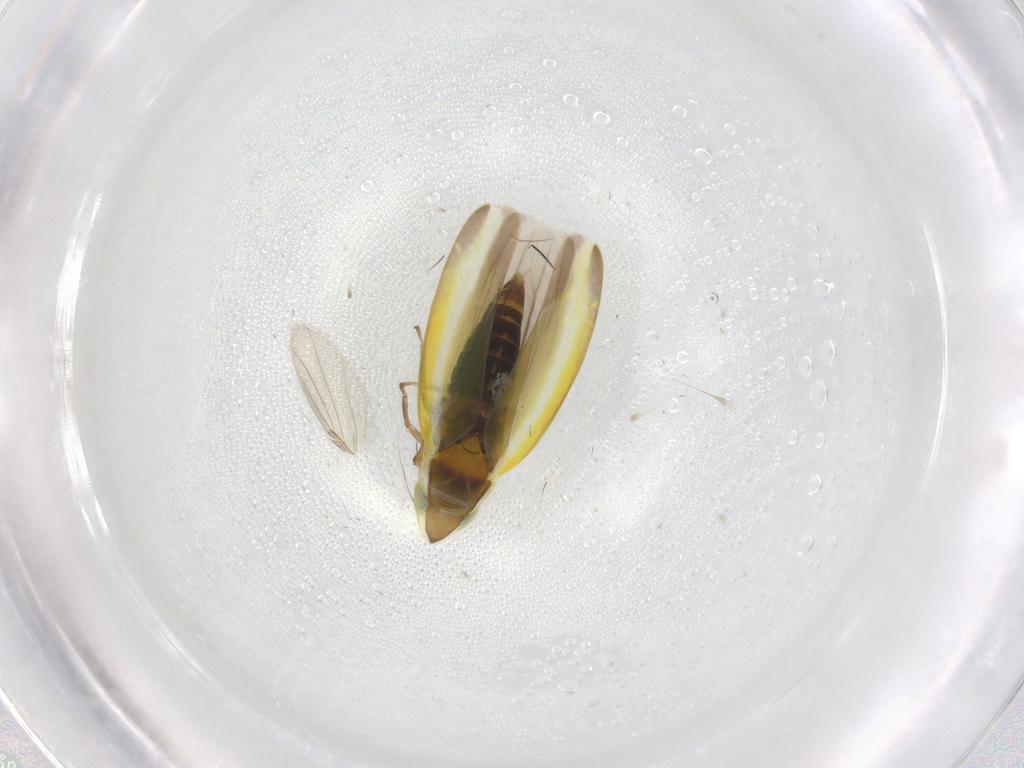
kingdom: Animalia
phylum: Arthropoda
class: Insecta
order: Hemiptera
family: Cicadellidae
